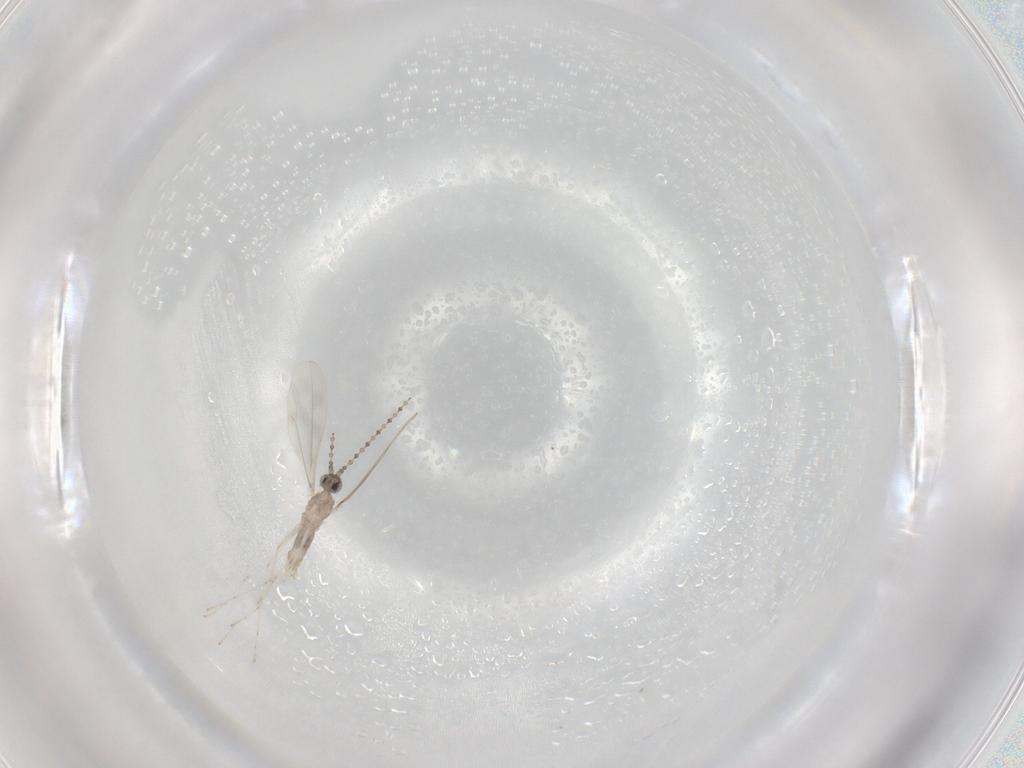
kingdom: Animalia
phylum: Arthropoda
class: Insecta
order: Diptera
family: Cecidomyiidae
